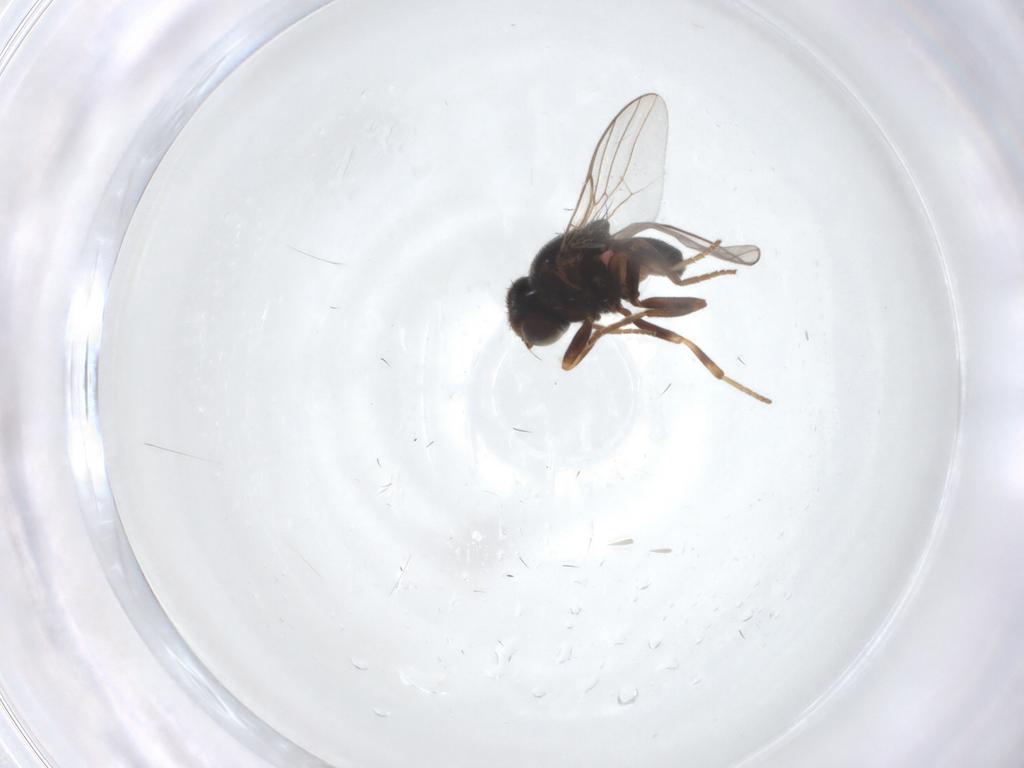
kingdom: Animalia
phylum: Arthropoda
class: Insecta
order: Diptera
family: Chloropidae
